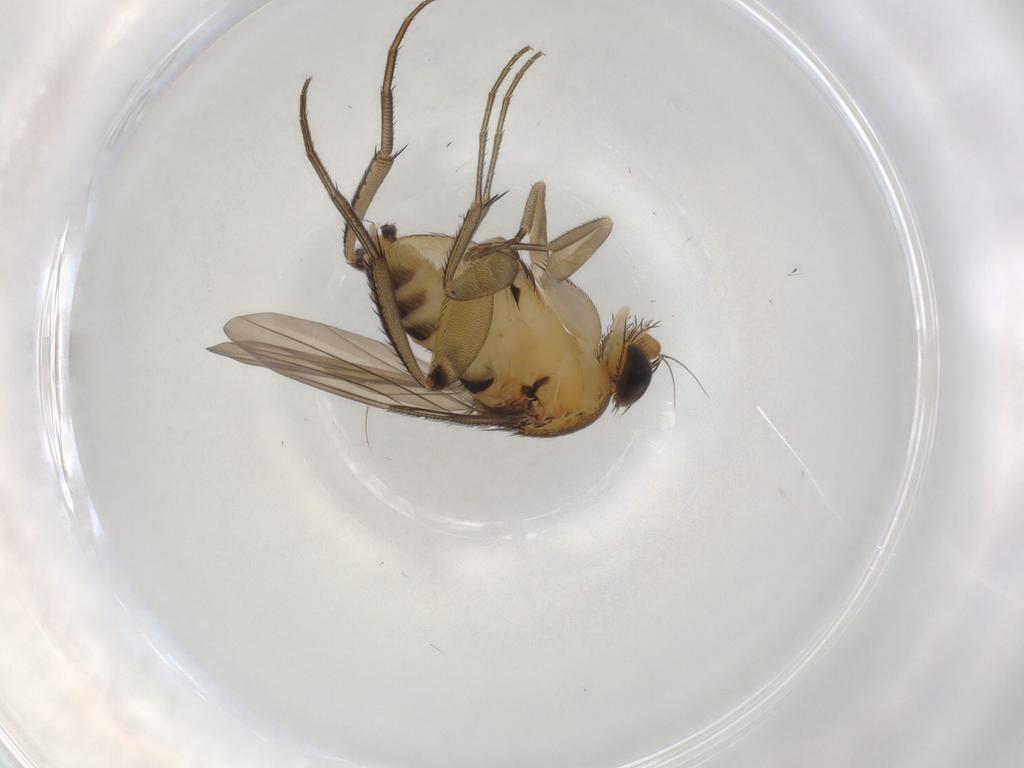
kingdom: Animalia
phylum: Arthropoda
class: Insecta
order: Diptera
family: Phoridae
